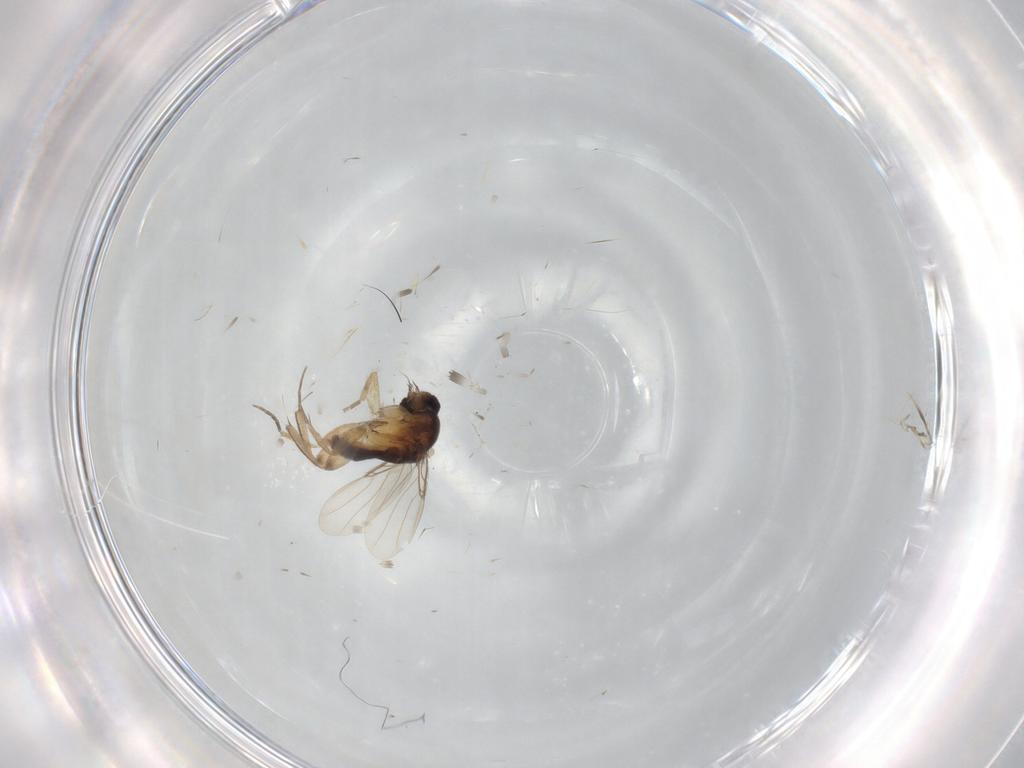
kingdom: Animalia
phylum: Arthropoda
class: Insecta
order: Diptera
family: Ceratopogonidae
